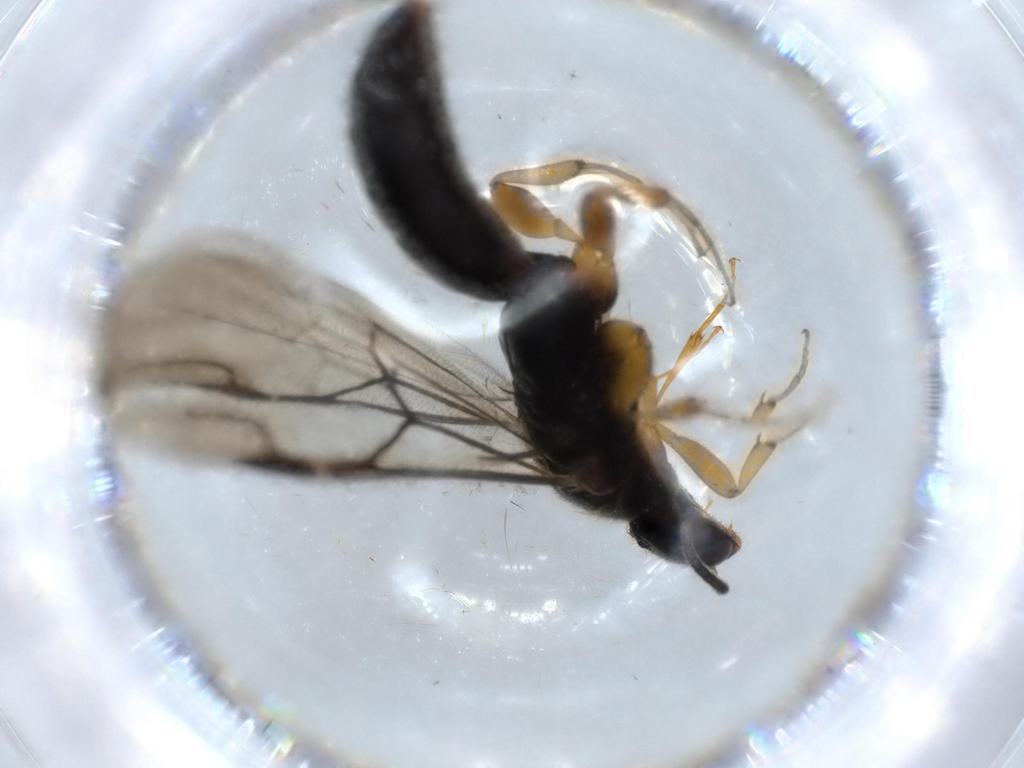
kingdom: Animalia
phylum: Arthropoda
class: Insecta
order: Hymenoptera
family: Bethylidae
